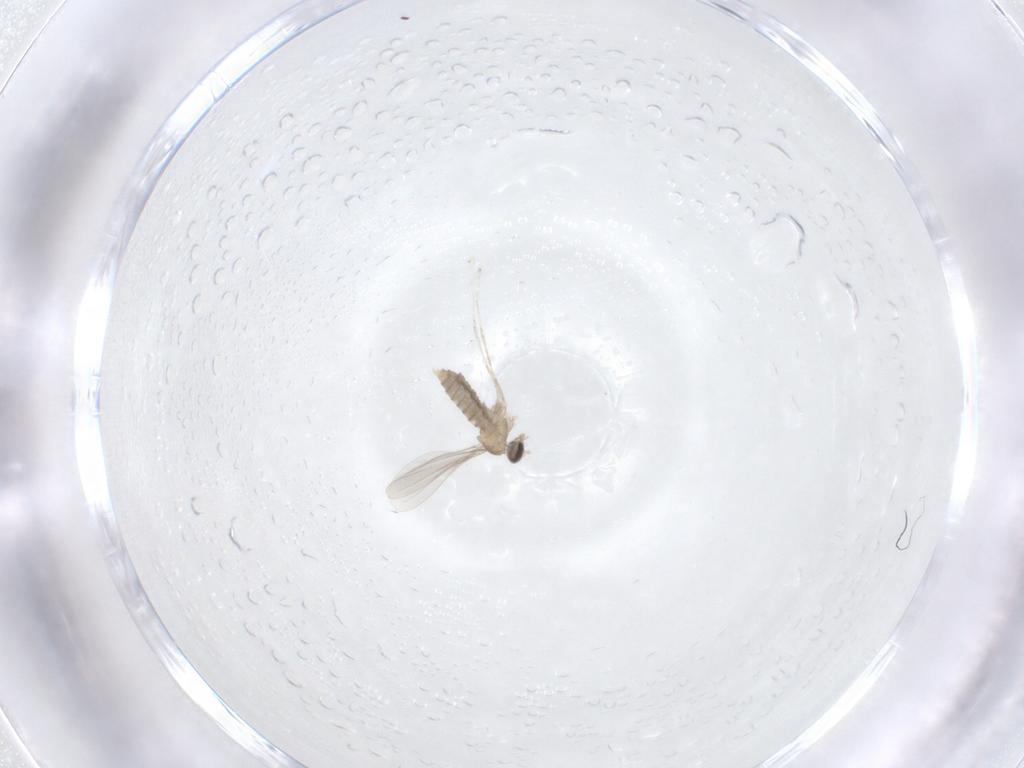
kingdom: Animalia
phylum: Arthropoda
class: Insecta
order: Diptera
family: Cecidomyiidae
